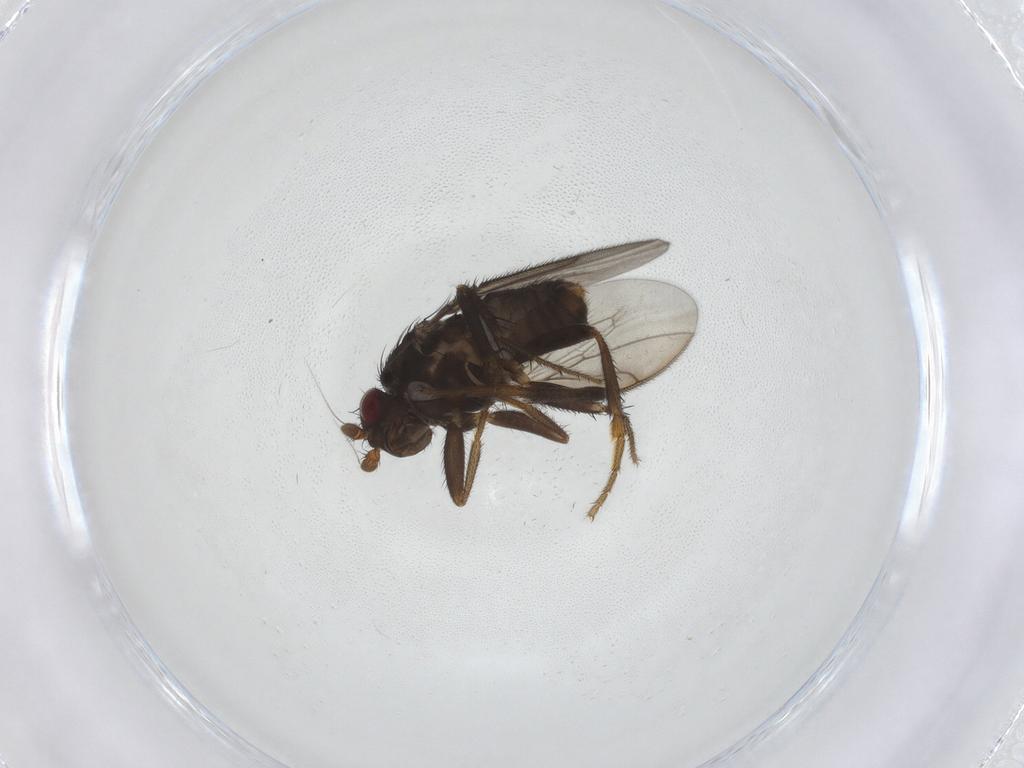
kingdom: Animalia
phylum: Arthropoda
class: Insecta
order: Diptera
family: Sphaeroceridae
